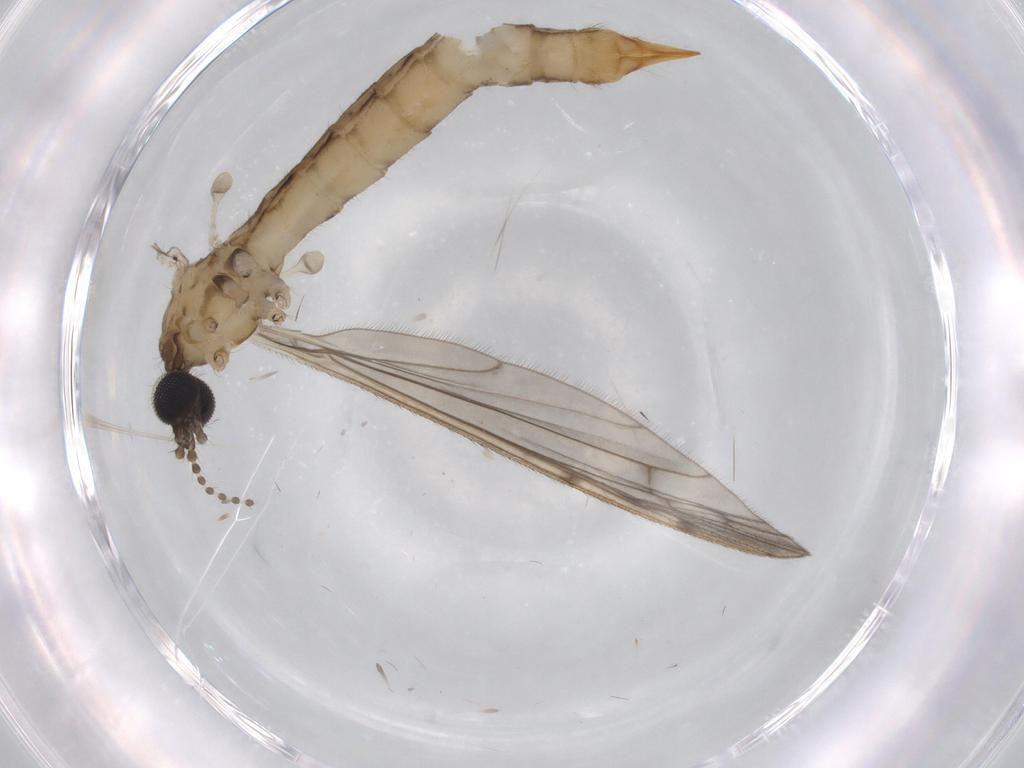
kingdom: Animalia
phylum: Arthropoda
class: Insecta
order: Diptera
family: Limoniidae
